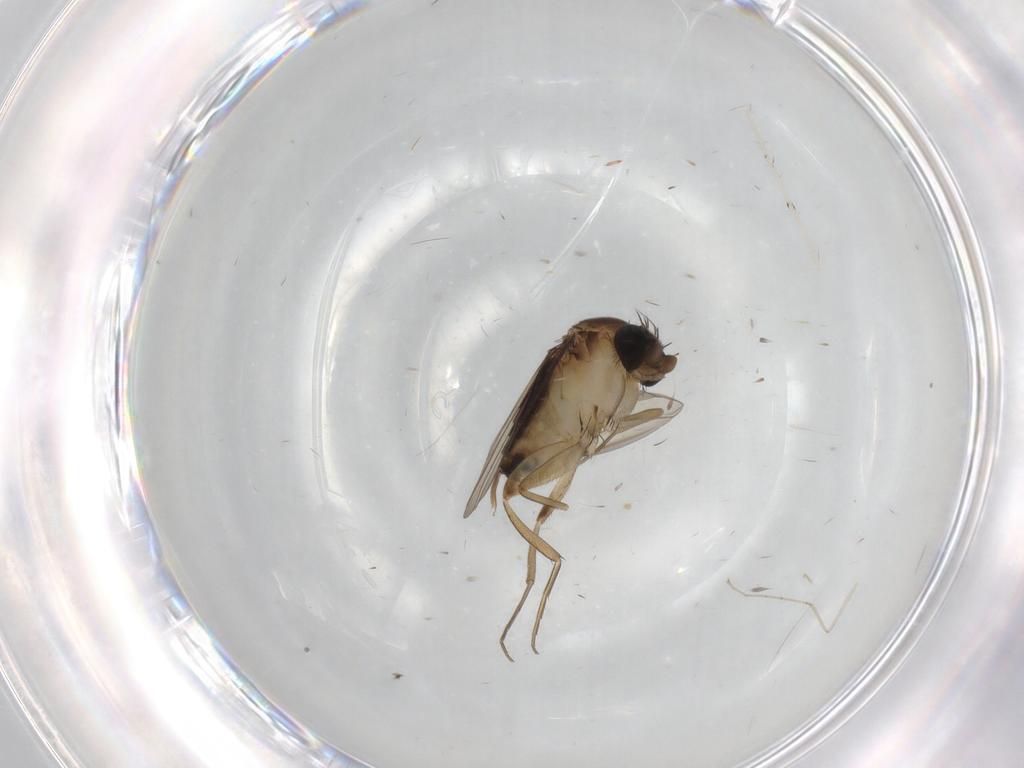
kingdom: Animalia
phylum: Arthropoda
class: Insecta
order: Diptera
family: Phoridae
